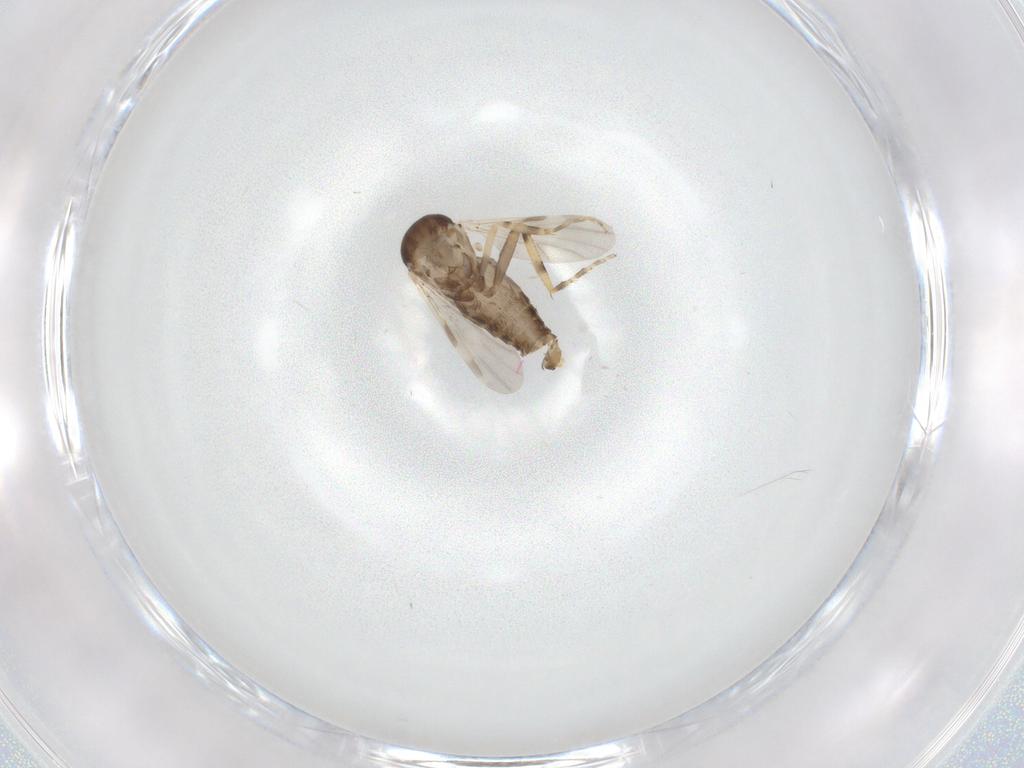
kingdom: Animalia
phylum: Arthropoda
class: Insecta
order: Diptera
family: Ceratopogonidae
